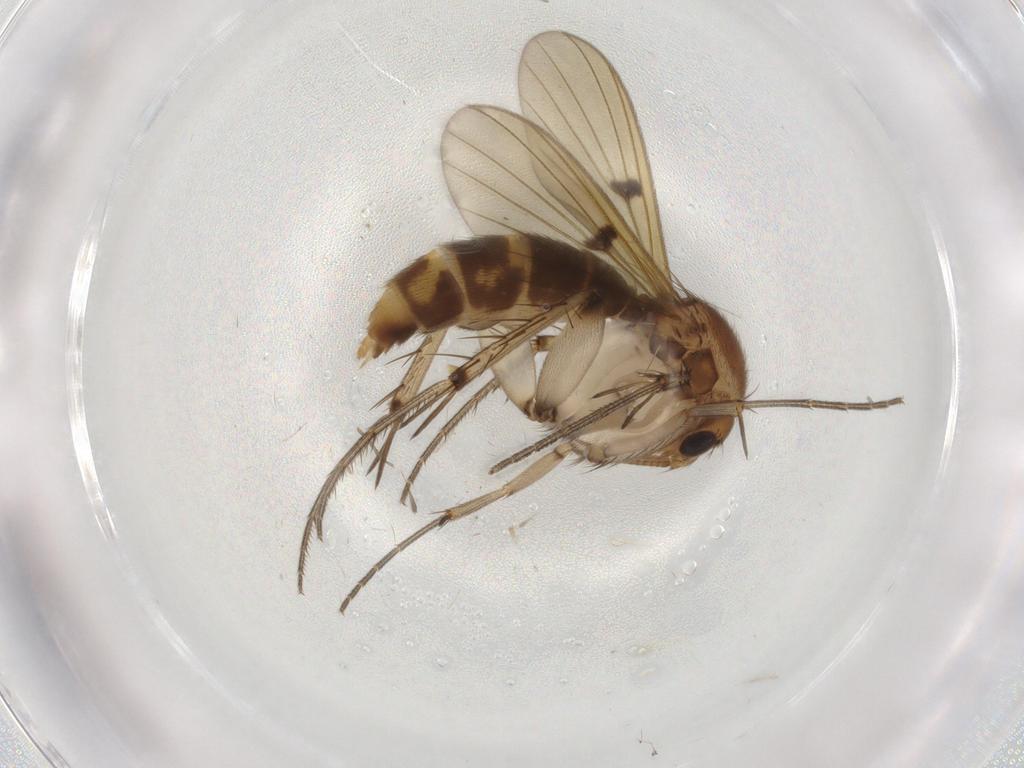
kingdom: Animalia
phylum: Arthropoda
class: Insecta
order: Diptera
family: Mycetophilidae
